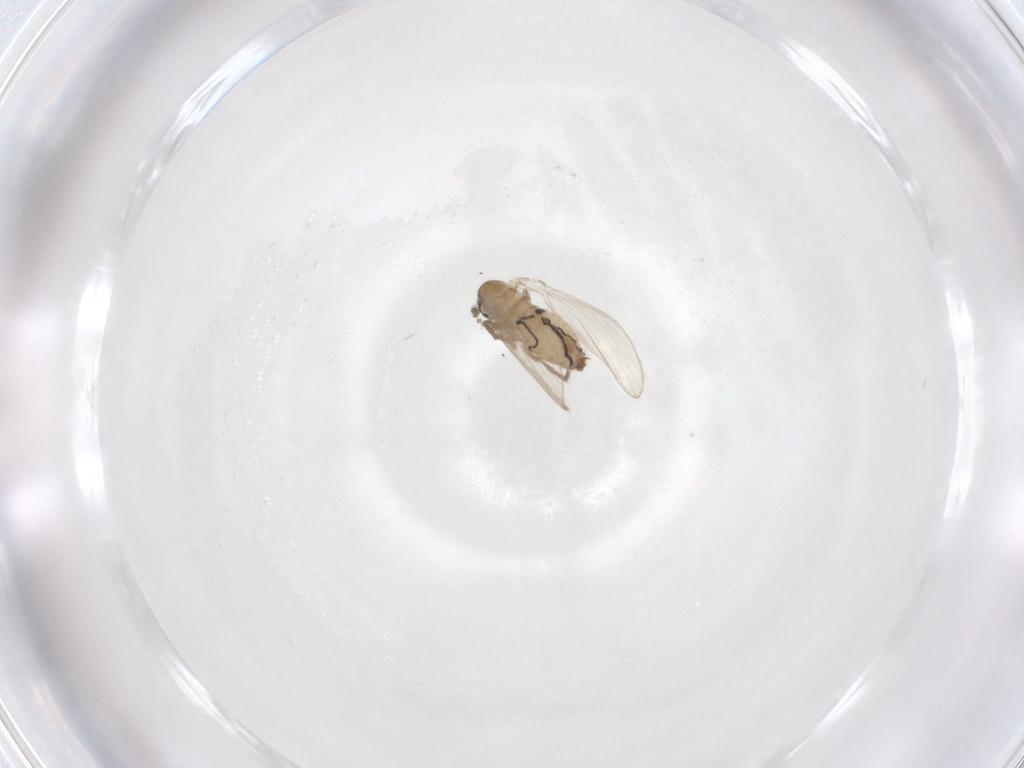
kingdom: Animalia
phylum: Arthropoda
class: Insecta
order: Diptera
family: Psychodidae
